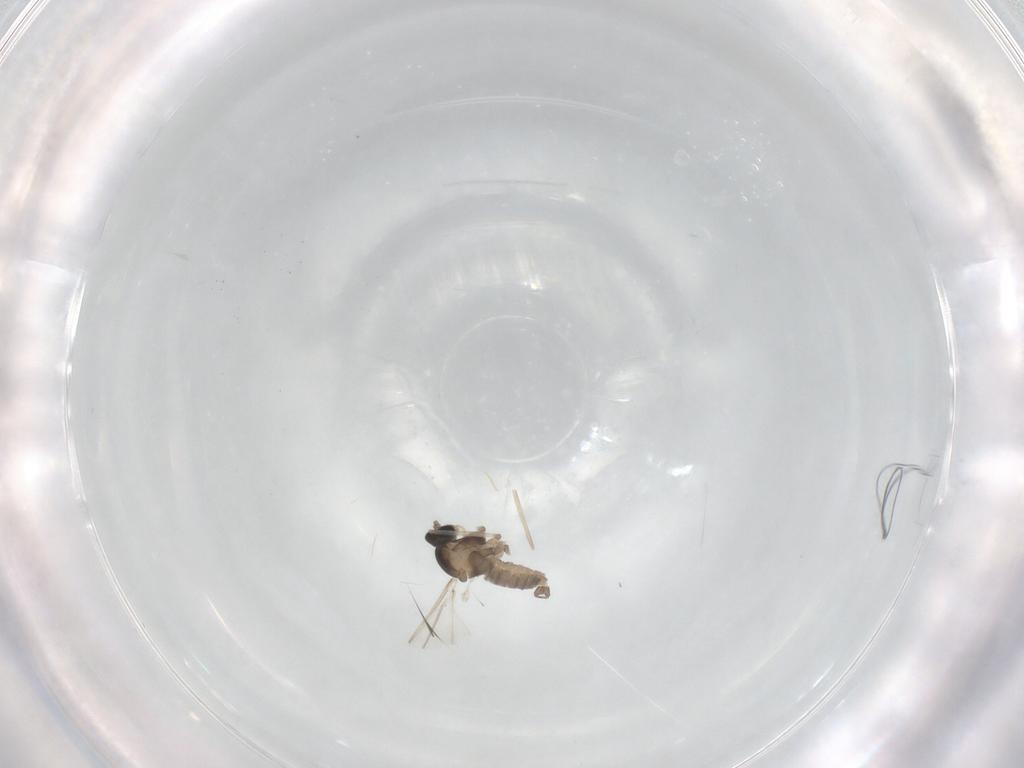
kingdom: Animalia
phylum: Arthropoda
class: Insecta
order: Diptera
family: Cecidomyiidae
